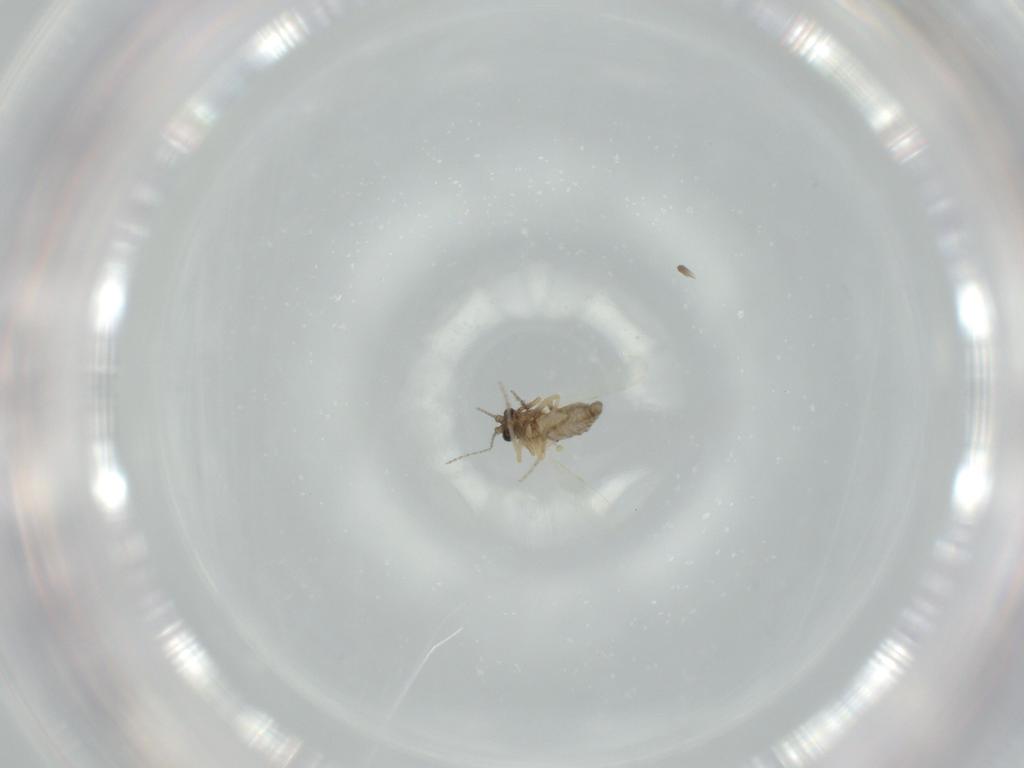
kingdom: Animalia
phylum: Arthropoda
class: Insecta
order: Diptera
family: Ceratopogonidae
